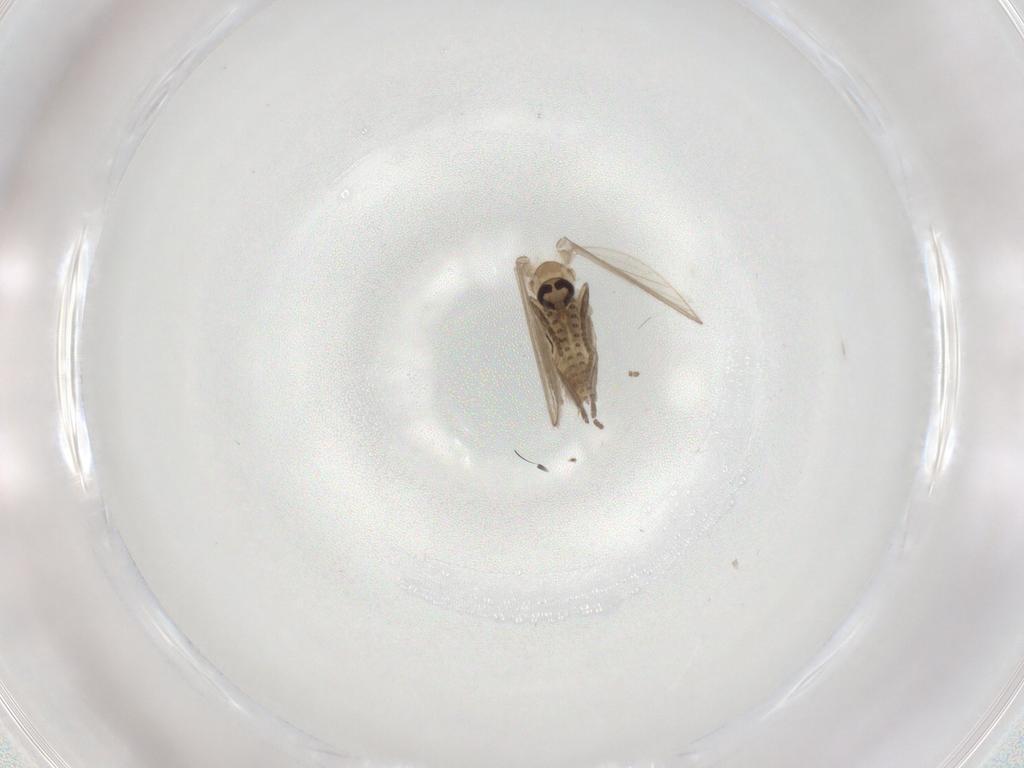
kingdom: Animalia
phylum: Arthropoda
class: Insecta
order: Diptera
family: Psychodidae
